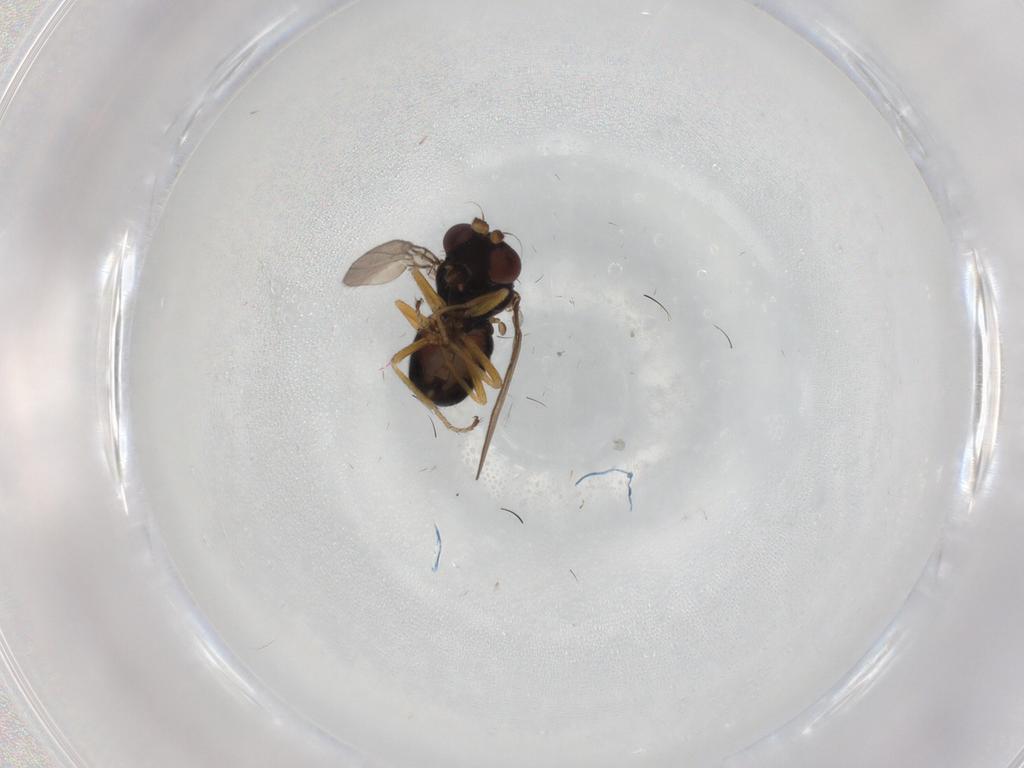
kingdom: Animalia
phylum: Arthropoda
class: Insecta
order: Diptera
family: Ephydridae
